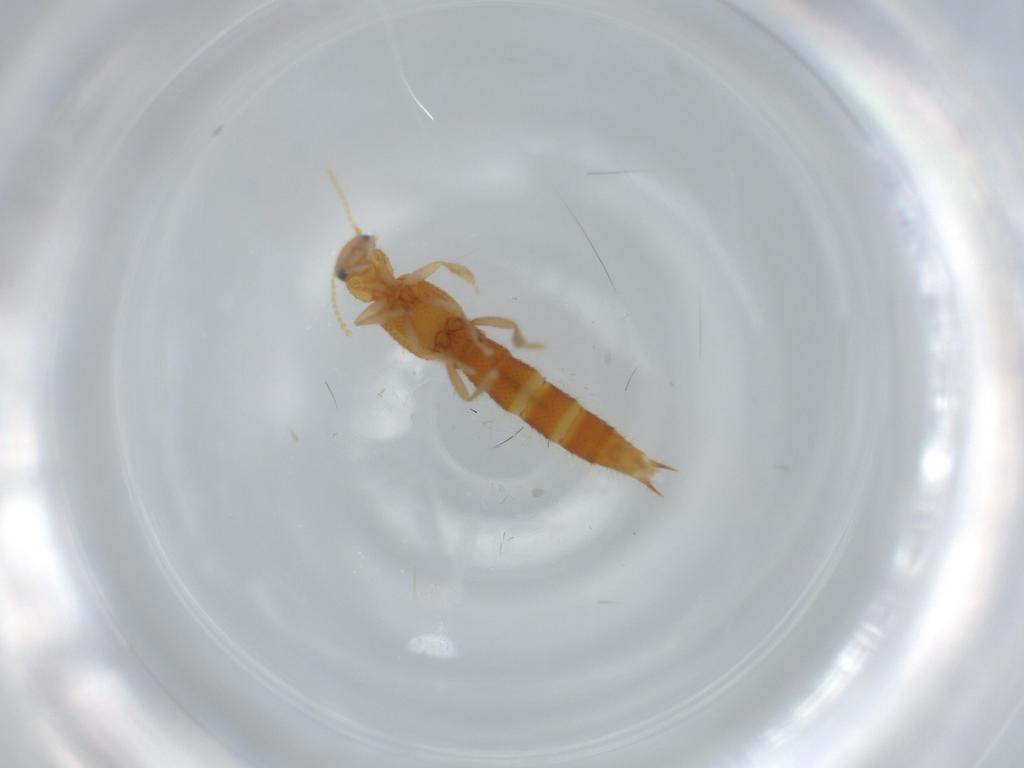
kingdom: Animalia
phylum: Arthropoda
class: Insecta
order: Coleoptera
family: Staphylinidae
